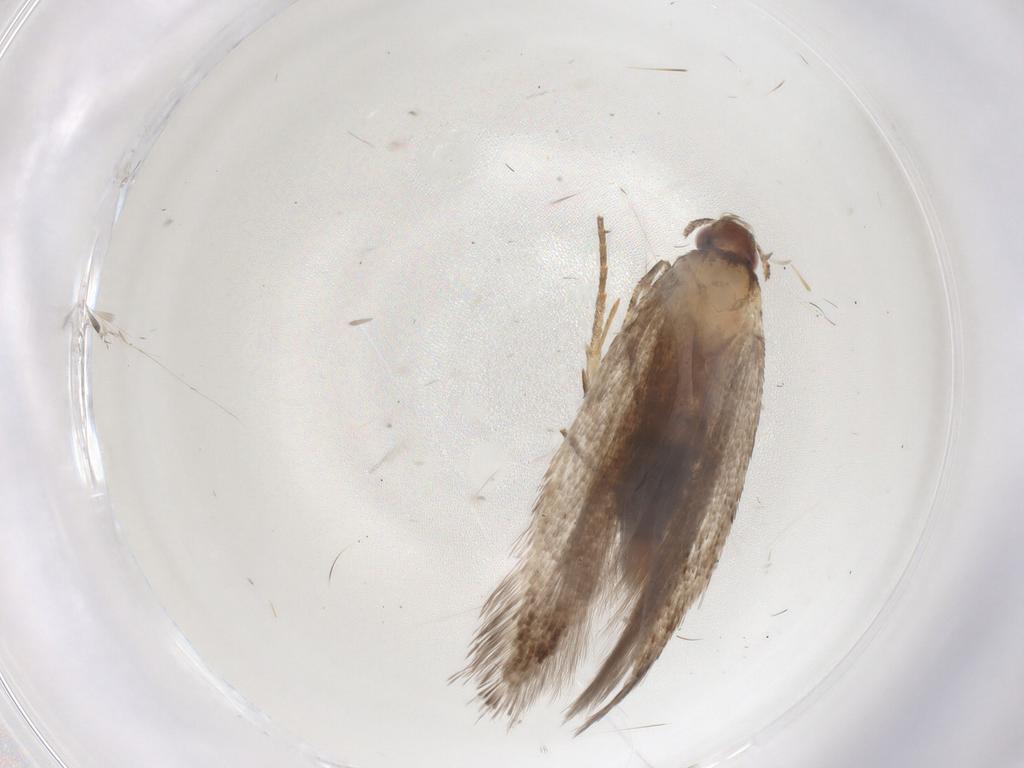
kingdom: Animalia
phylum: Arthropoda
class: Insecta
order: Lepidoptera
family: Gelechiidae
